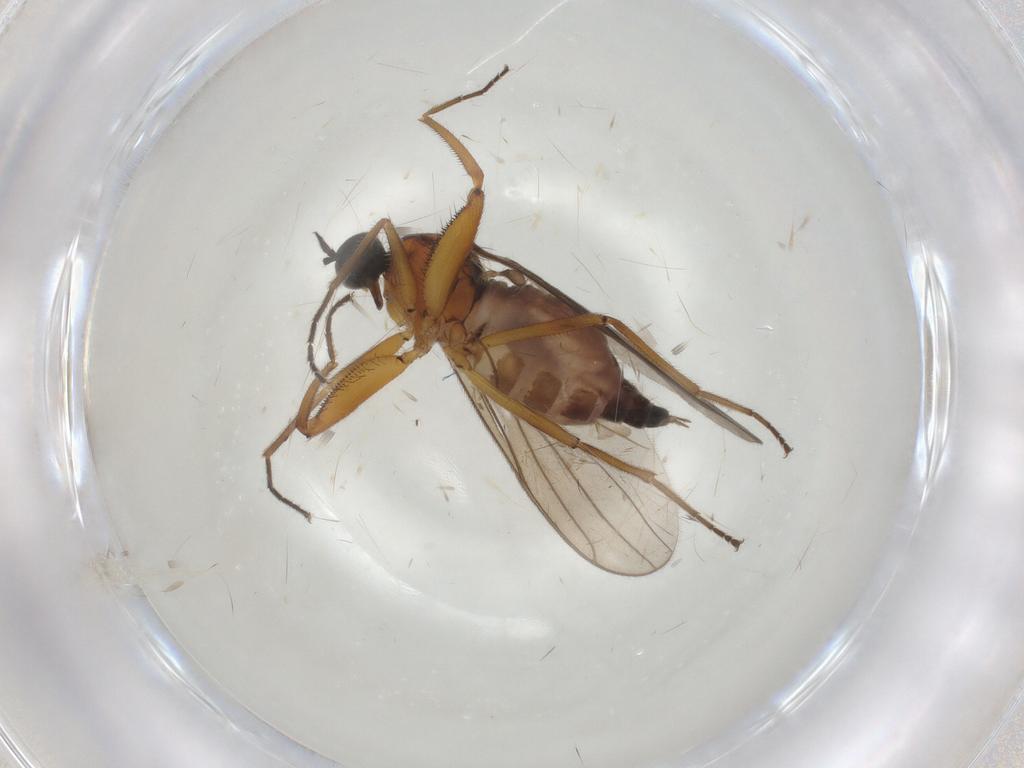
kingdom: Animalia
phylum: Arthropoda
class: Insecta
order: Diptera
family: Hybotidae
